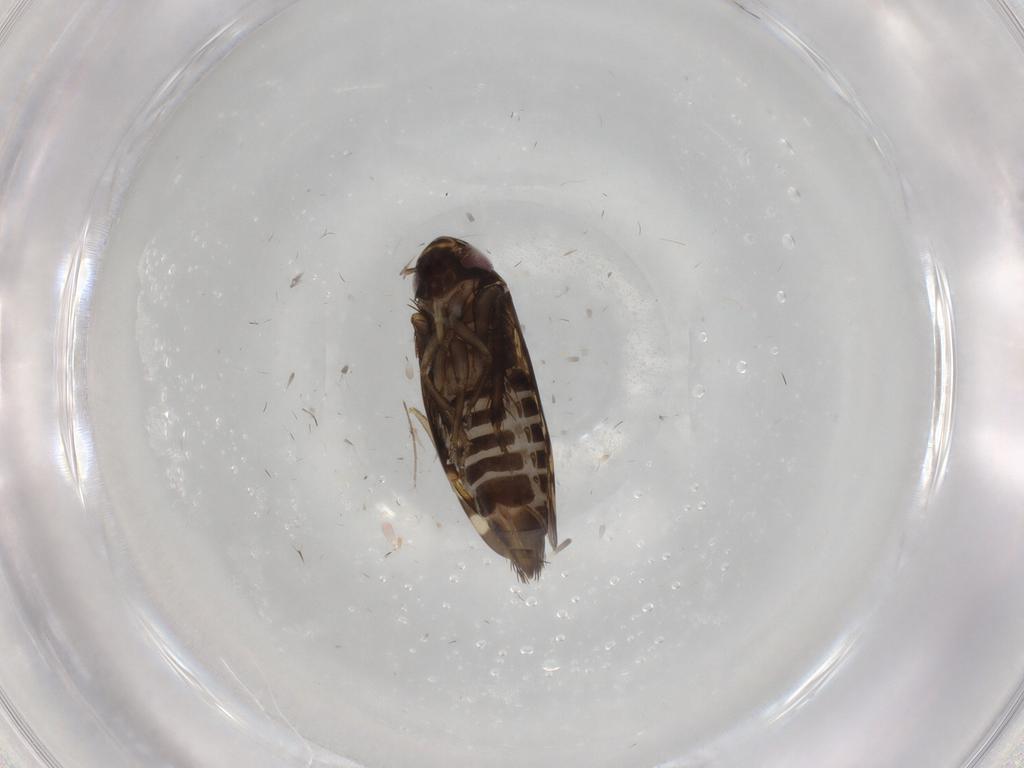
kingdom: Animalia
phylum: Arthropoda
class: Insecta
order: Hemiptera
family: Cicadellidae
